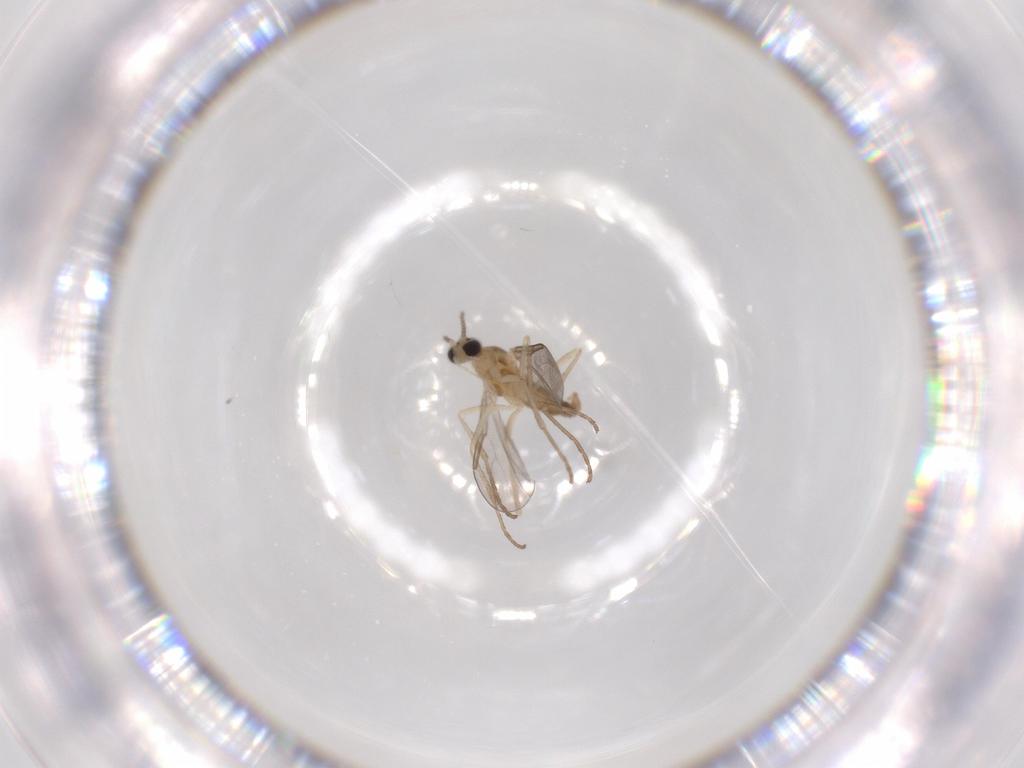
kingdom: Animalia
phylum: Arthropoda
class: Insecta
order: Diptera
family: Cecidomyiidae
